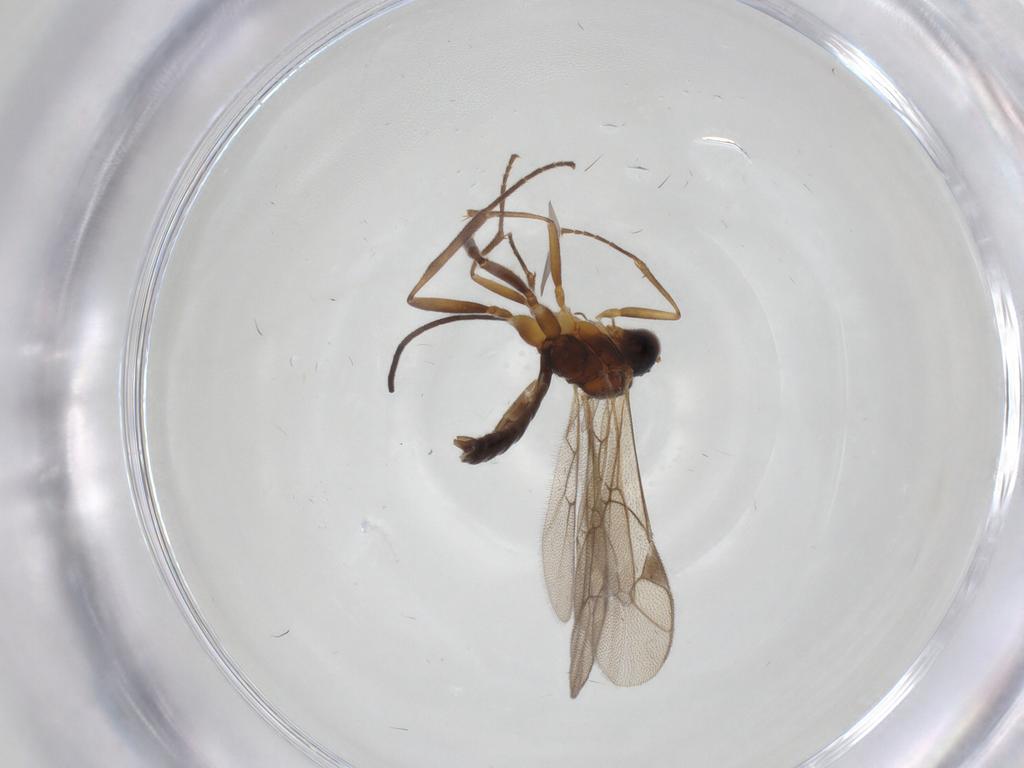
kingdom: Animalia
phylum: Arthropoda
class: Insecta
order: Hymenoptera
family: Ichneumonidae
